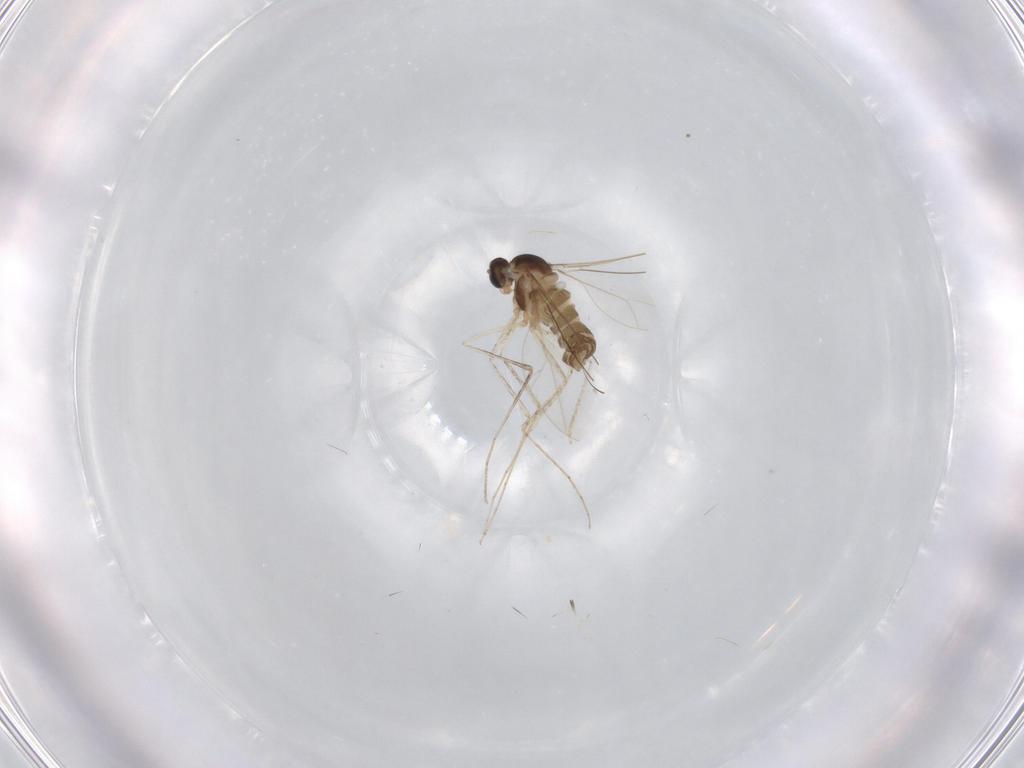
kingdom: Animalia
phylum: Arthropoda
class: Insecta
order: Diptera
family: Cecidomyiidae
